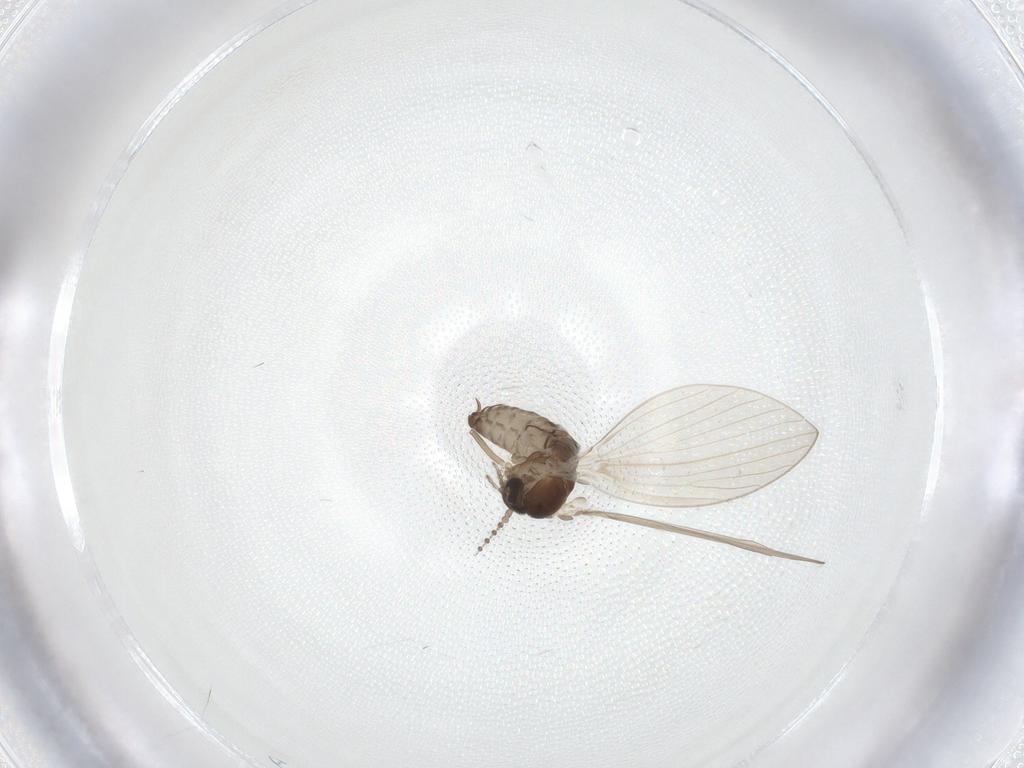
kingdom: Animalia
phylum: Arthropoda
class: Insecta
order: Diptera
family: Psychodidae
